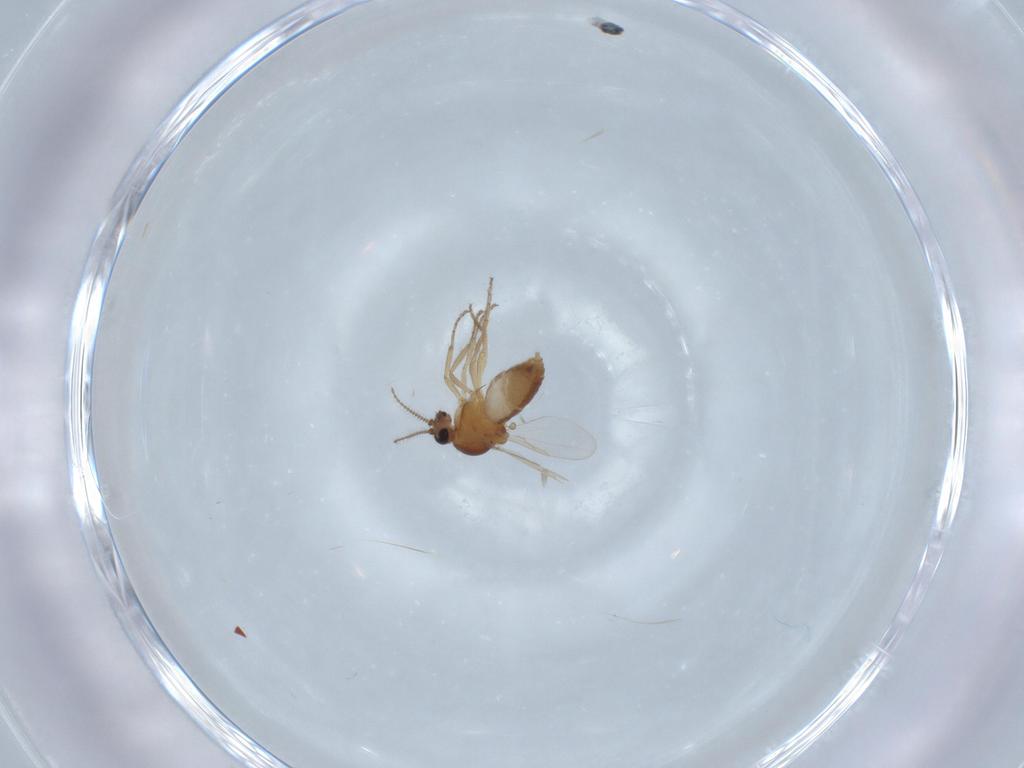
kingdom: Animalia
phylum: Arthropoda
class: Insecta
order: Diptera
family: Ceratopogonidae
